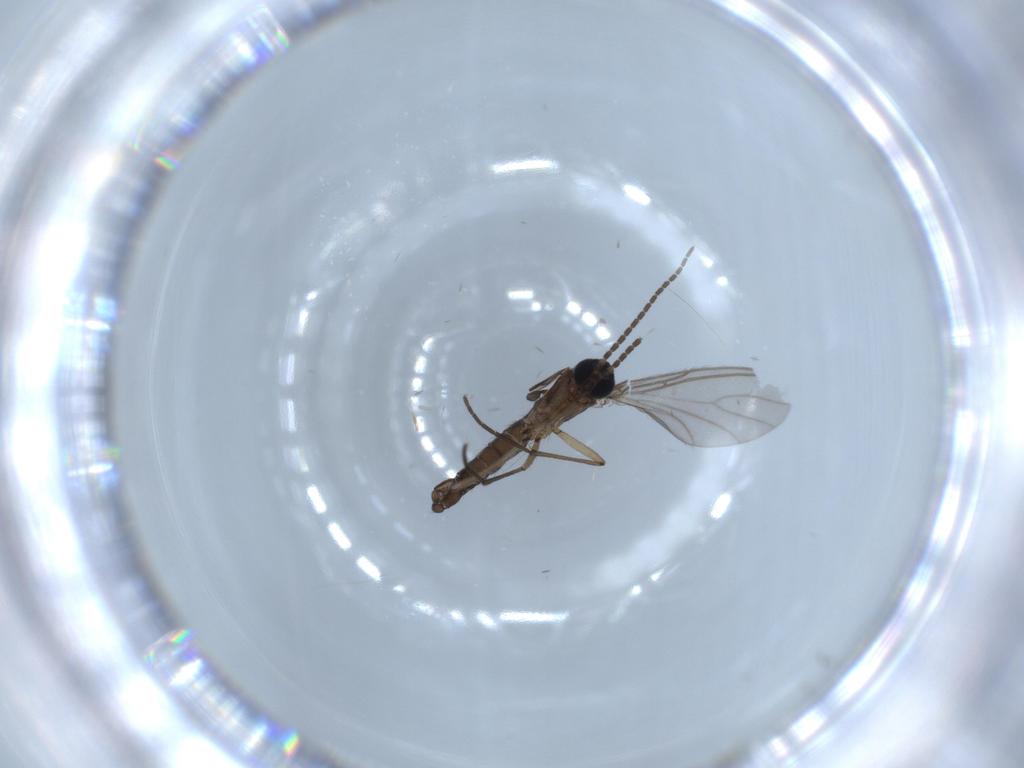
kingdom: Animalia
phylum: Arthropoda
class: Insecta
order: Diptera
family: Sciaridae
